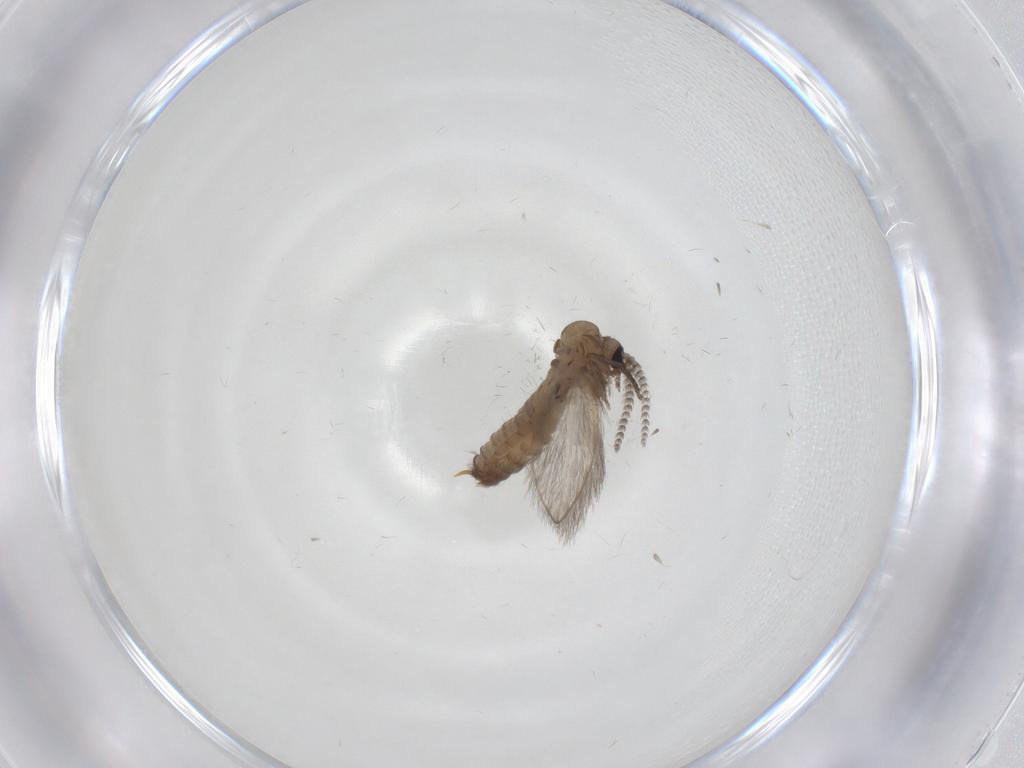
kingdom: Animalia
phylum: Arthropoda
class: Insecta
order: Diptera
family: Psychodidae
